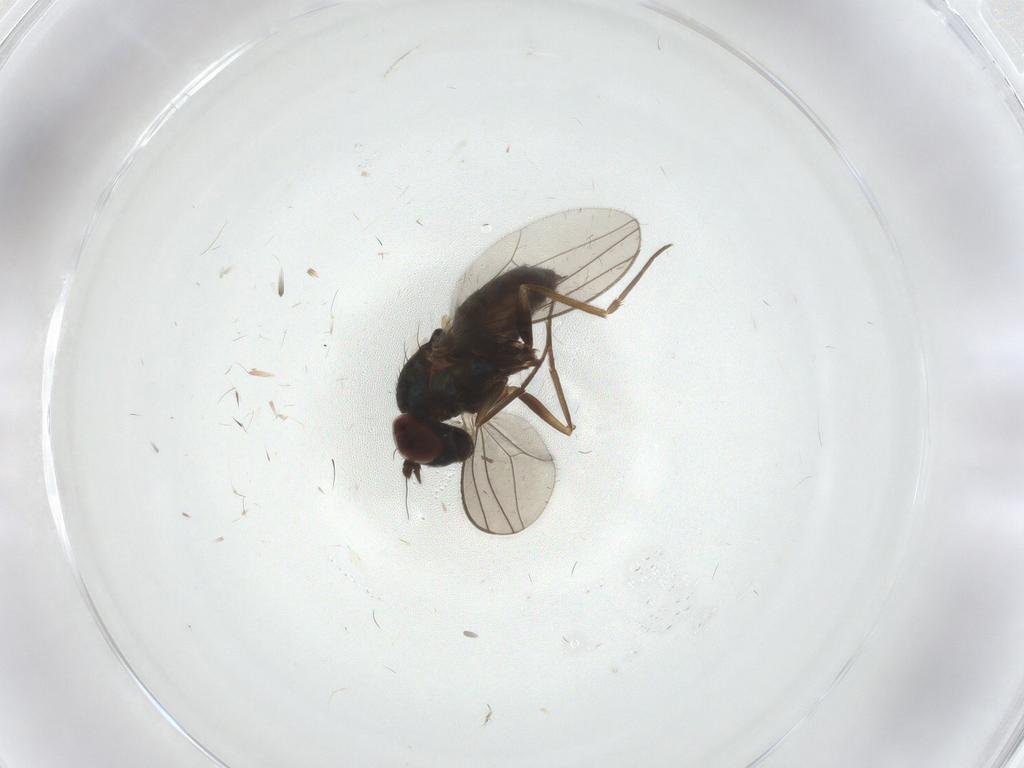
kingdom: Animalia
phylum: Arthropoda
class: Insecta
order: Diptera
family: Dolichopodidae
